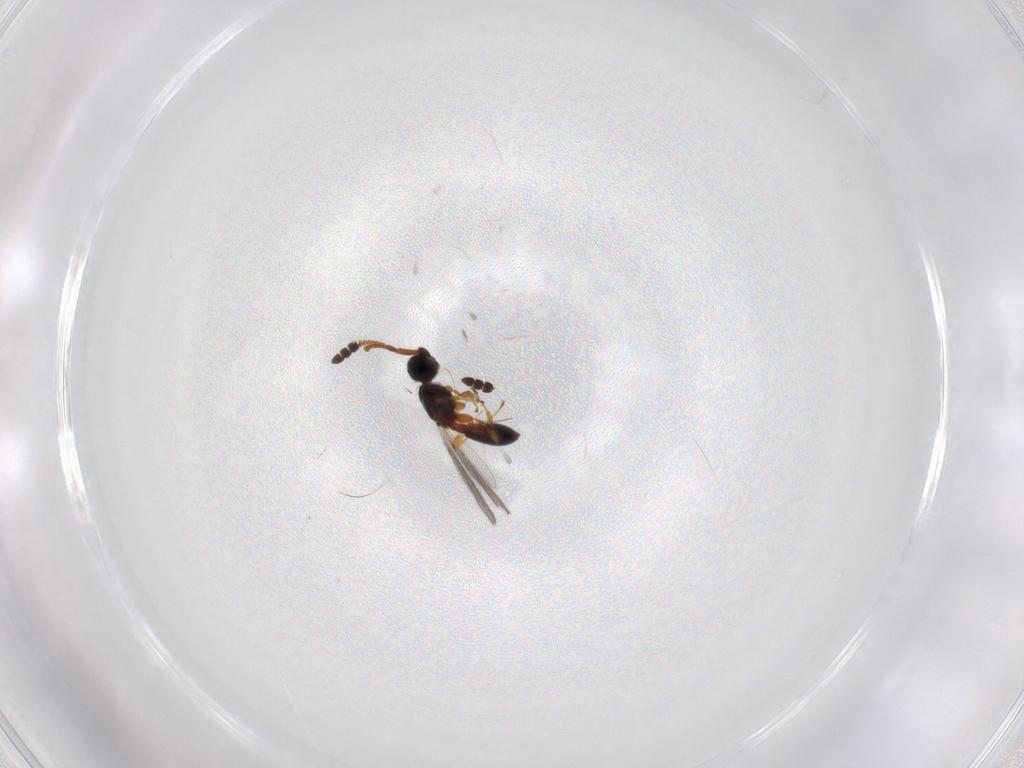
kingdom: Animalia
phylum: Arthropoda
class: Insecta
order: Hymenoptera
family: Diapriidae
